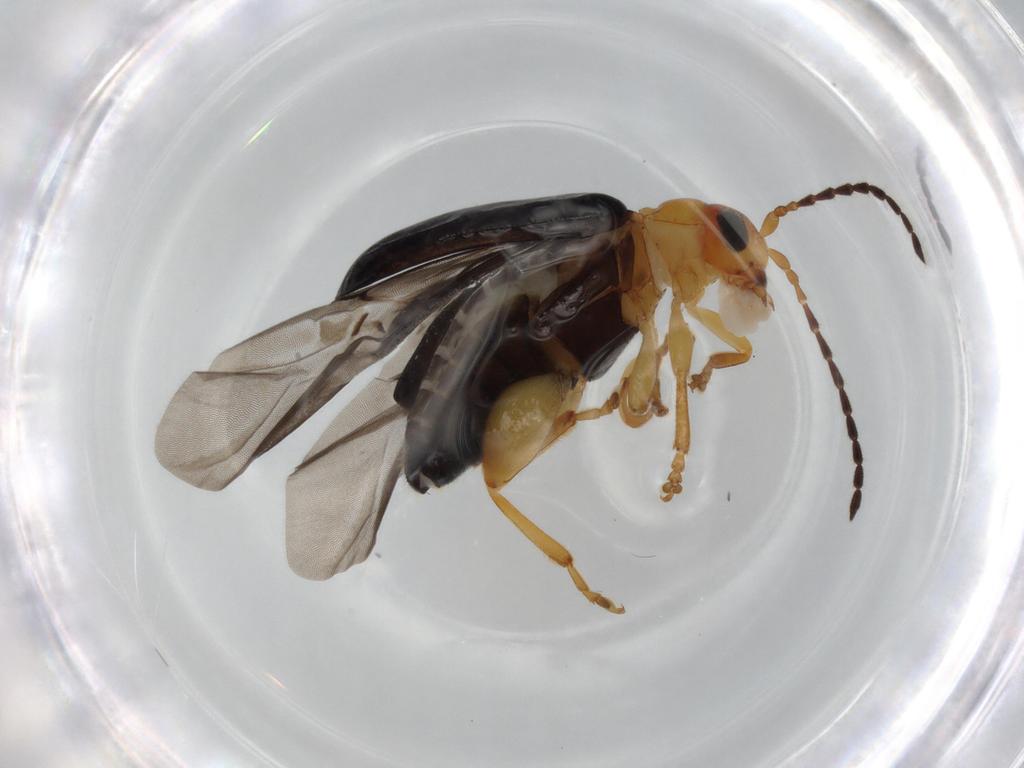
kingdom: Animalia
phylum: Arthropoda
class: Insecta
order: Coleoptera
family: Chrysomelidae
